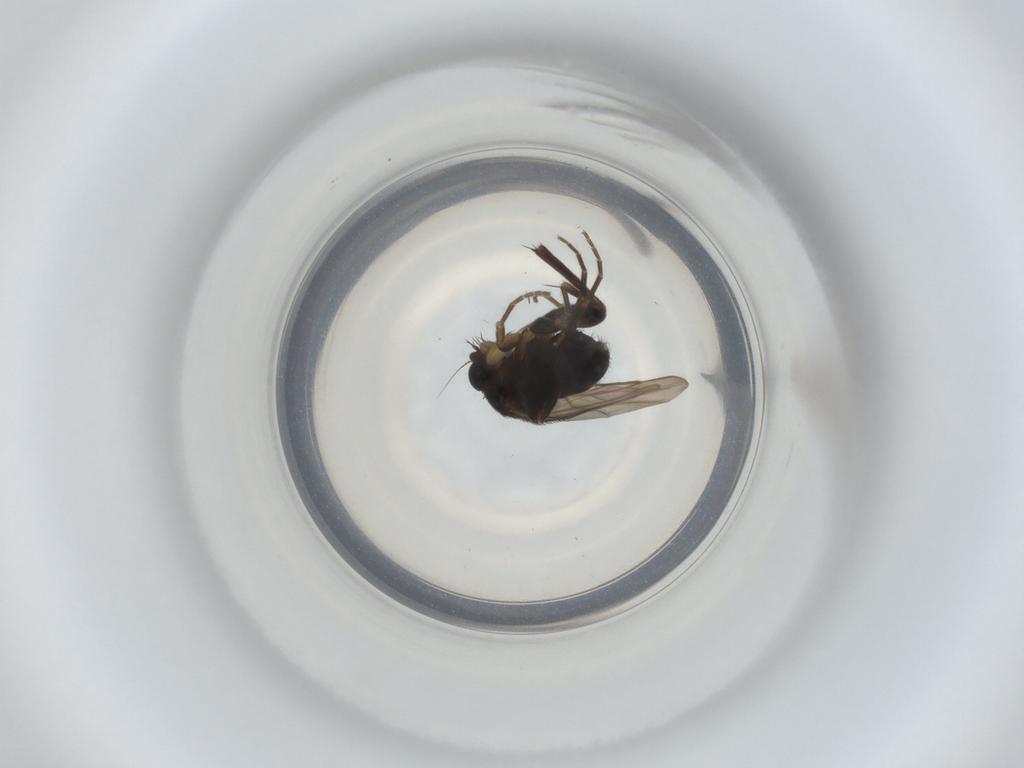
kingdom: Animalia
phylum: Arthropoda
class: Insecta
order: Diptera
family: Phoridae
